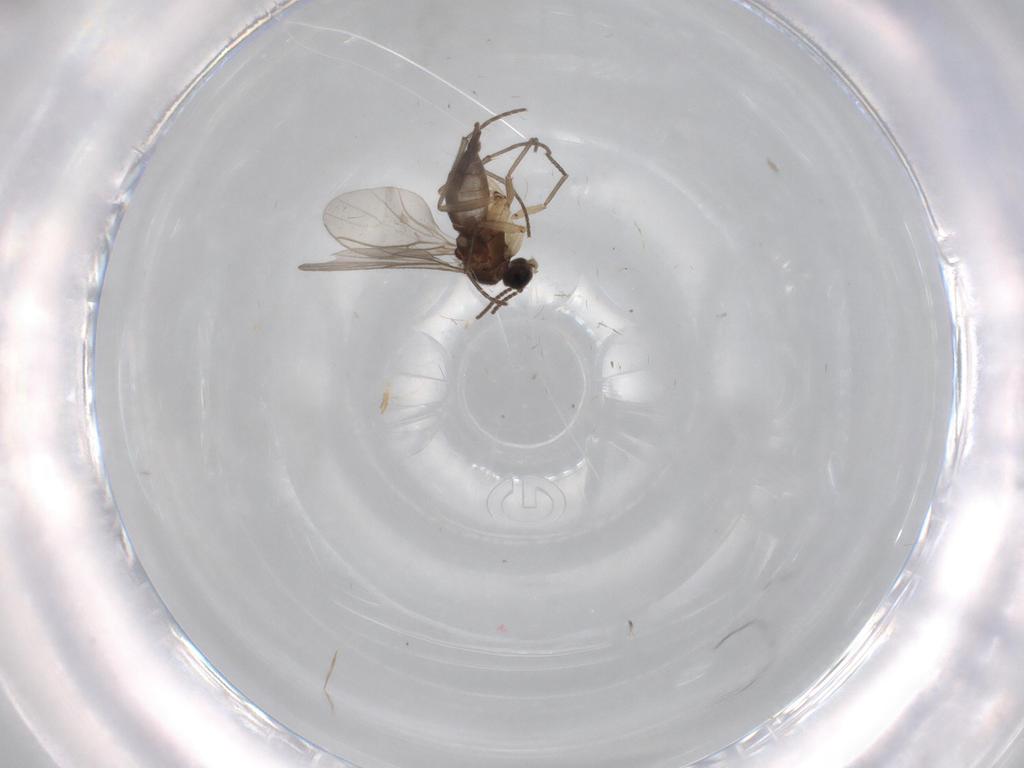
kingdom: Animalia
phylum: Arthropoda
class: Insecta
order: Diptera
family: Sciaridae
